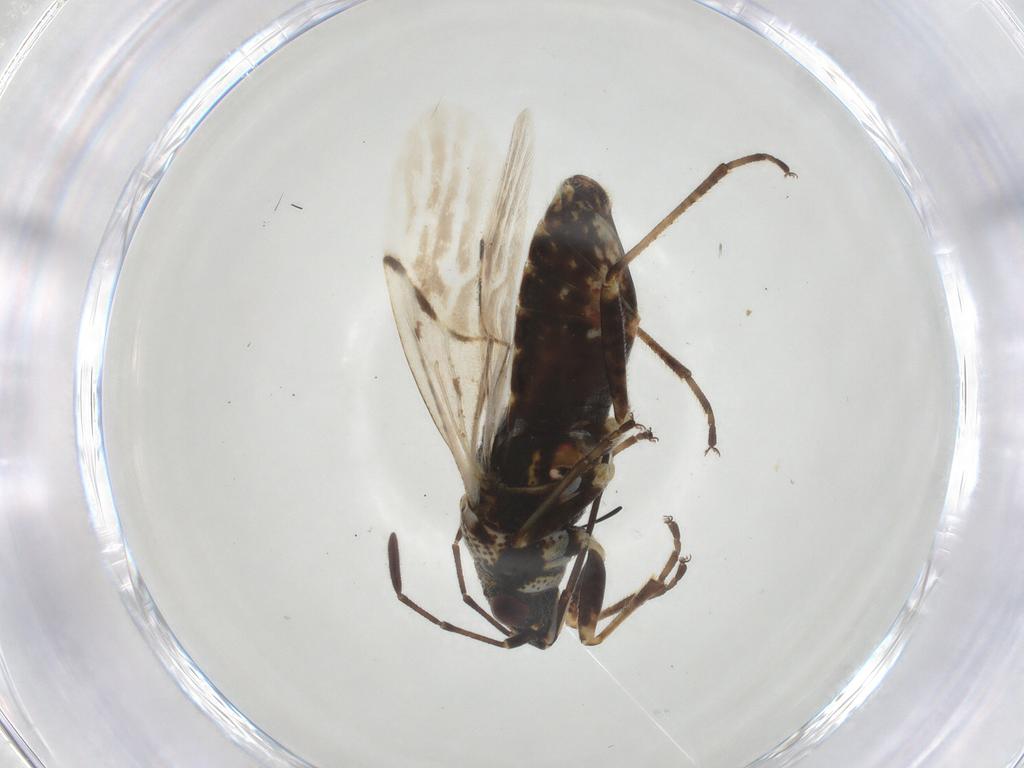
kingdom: Animalia
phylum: Arthropoda
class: Insecta
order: Hemiptera
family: Lygaeidae
